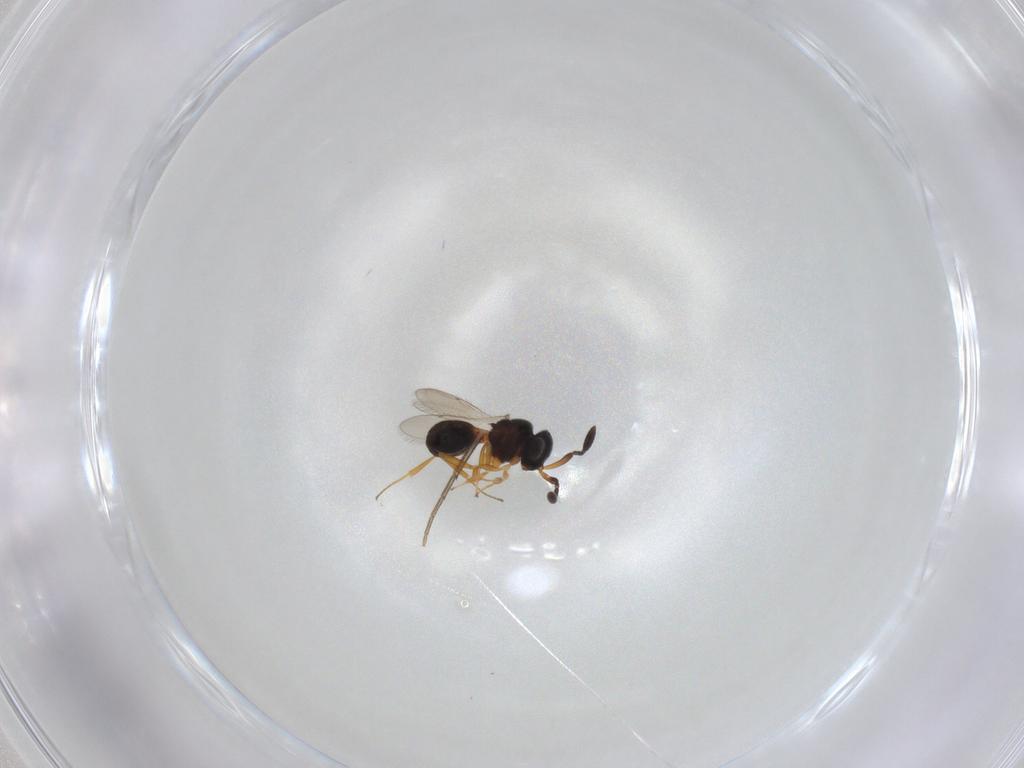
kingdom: Animalia
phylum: Arthropoda
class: Insecta
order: Hymenoptera
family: Scelionidae
